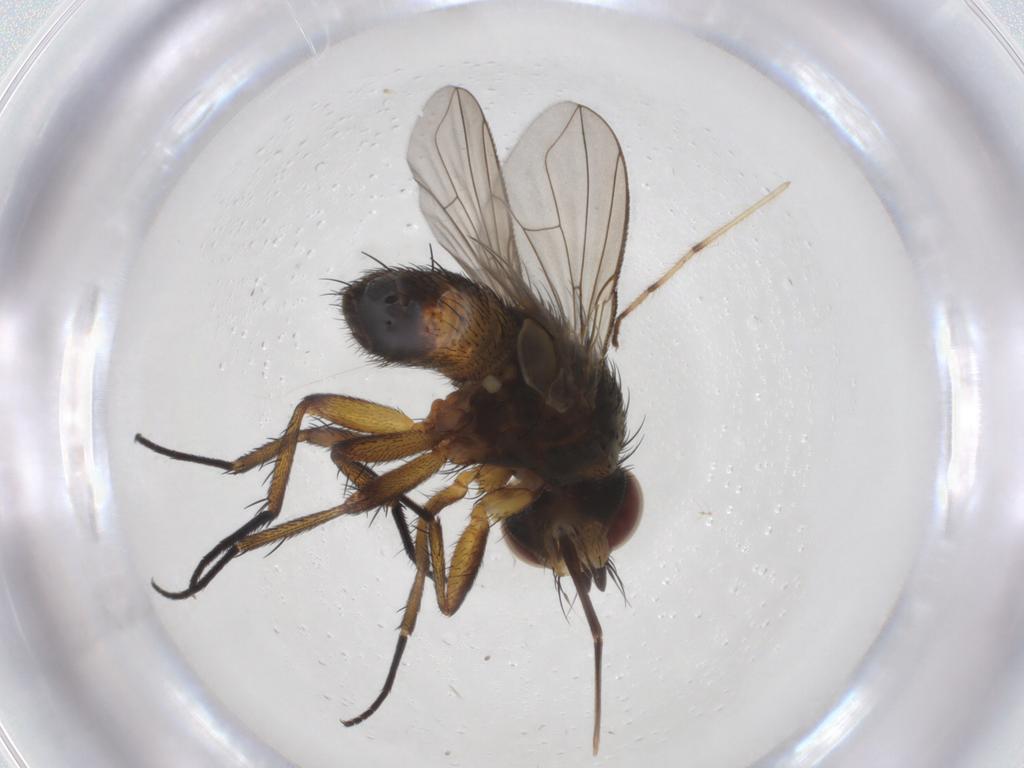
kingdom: Animalia
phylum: Arthropoda
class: Insecta
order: Diptera
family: Tachinidae
